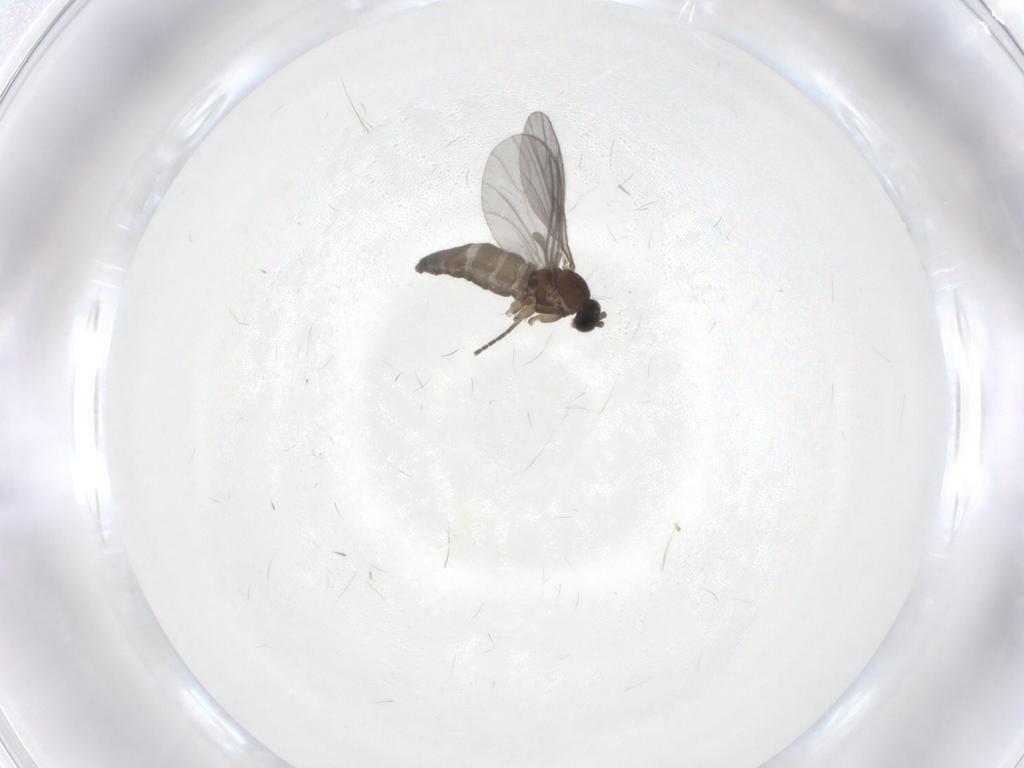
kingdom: Animalia
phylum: Arthropoda
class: Insecta
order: Diptera
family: Sciaridae
